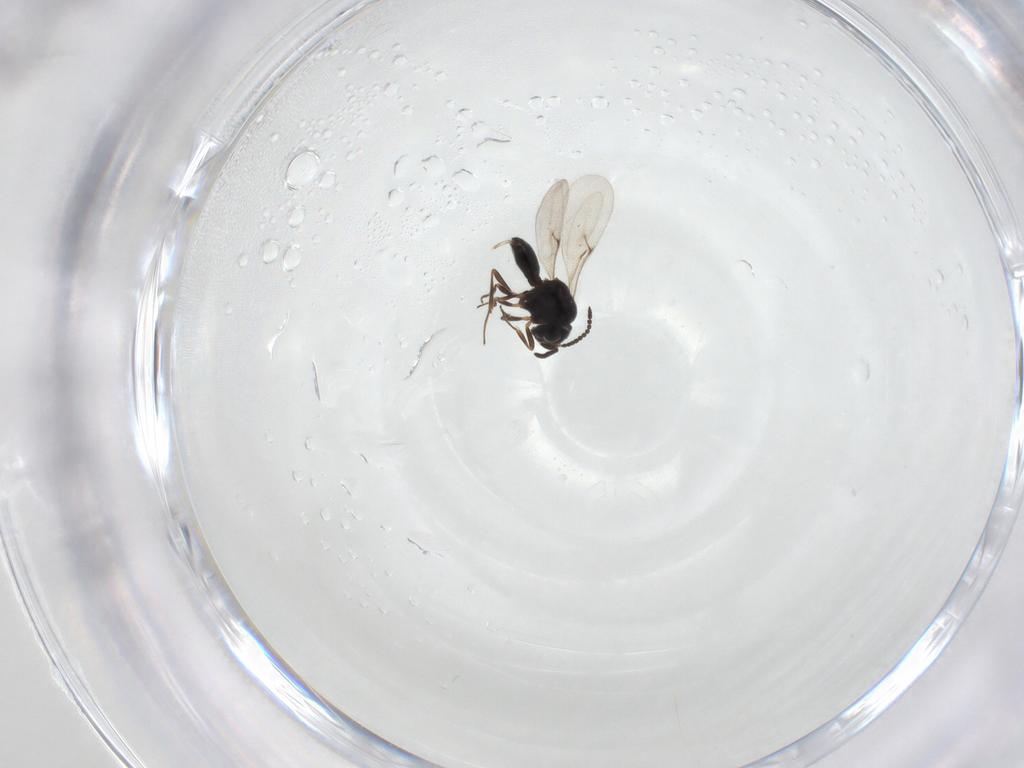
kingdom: Animalia
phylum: Arthropoda
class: Insecta
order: Hymenoptera
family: Scelionidae
